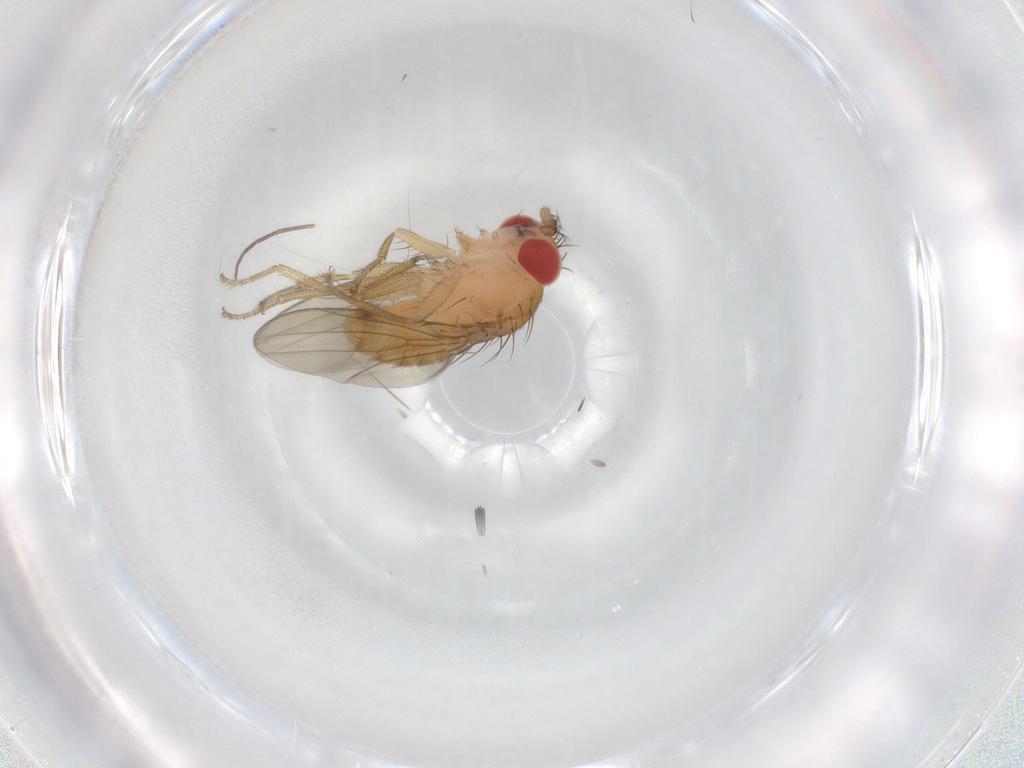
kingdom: Animalia
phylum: Arthropoda
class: Insecta
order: Diptera
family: Drosophilidae
